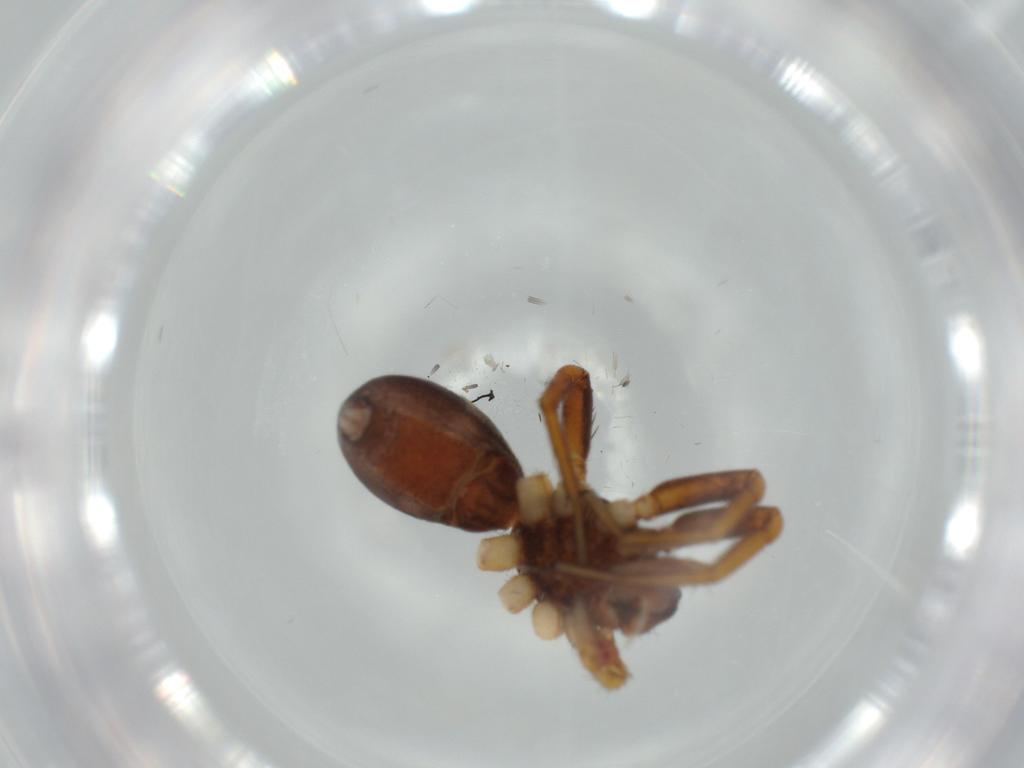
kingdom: Animalia
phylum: Arthropoda
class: Arachnida
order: Araneae
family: Corinnidae
